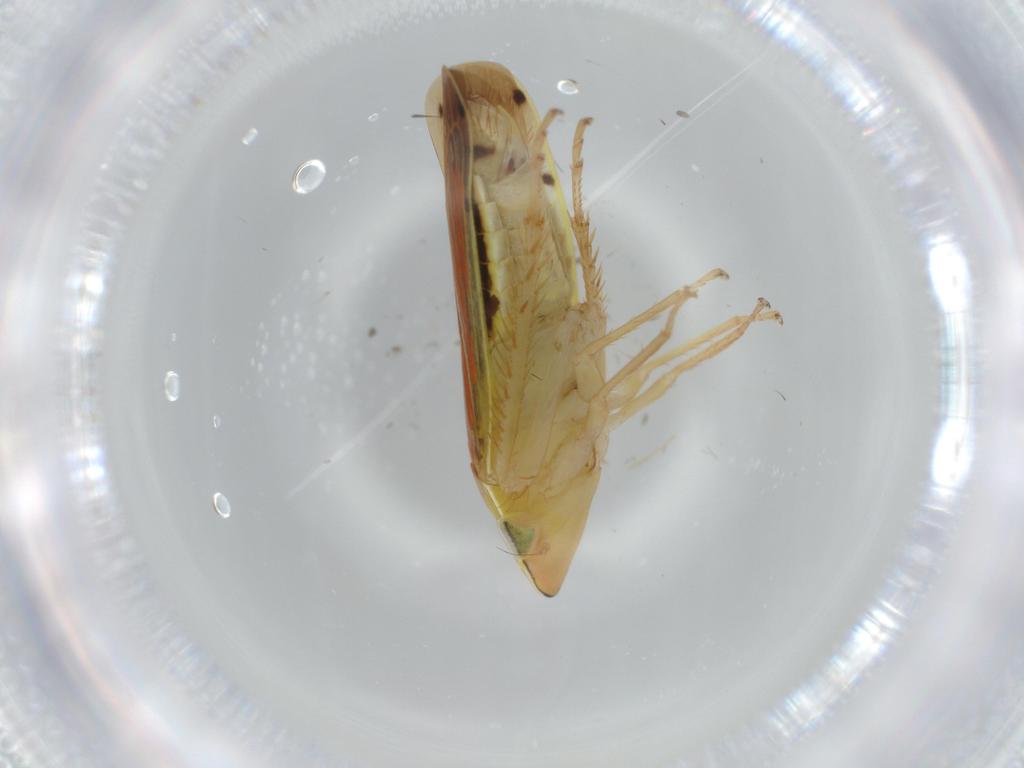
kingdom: Animalia
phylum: Arthropoda
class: Insecta
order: Hemiptera
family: Cicadellidae
